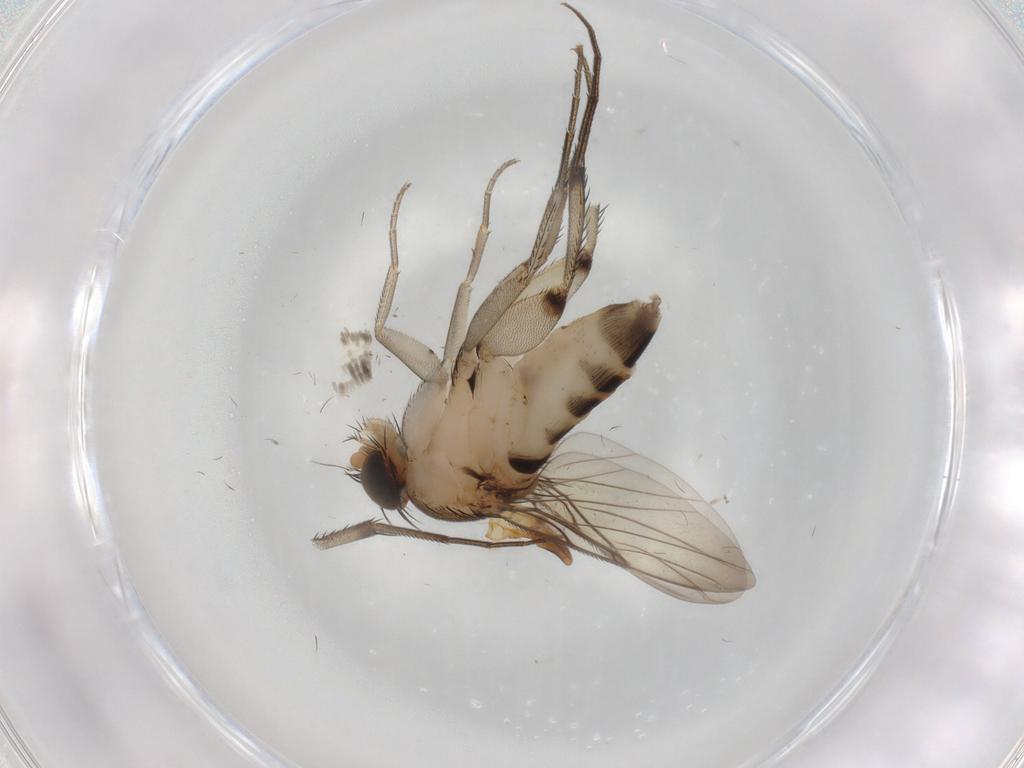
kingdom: Animalia
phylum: Arthropoda
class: Insecta
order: Diptera
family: Phoridae
